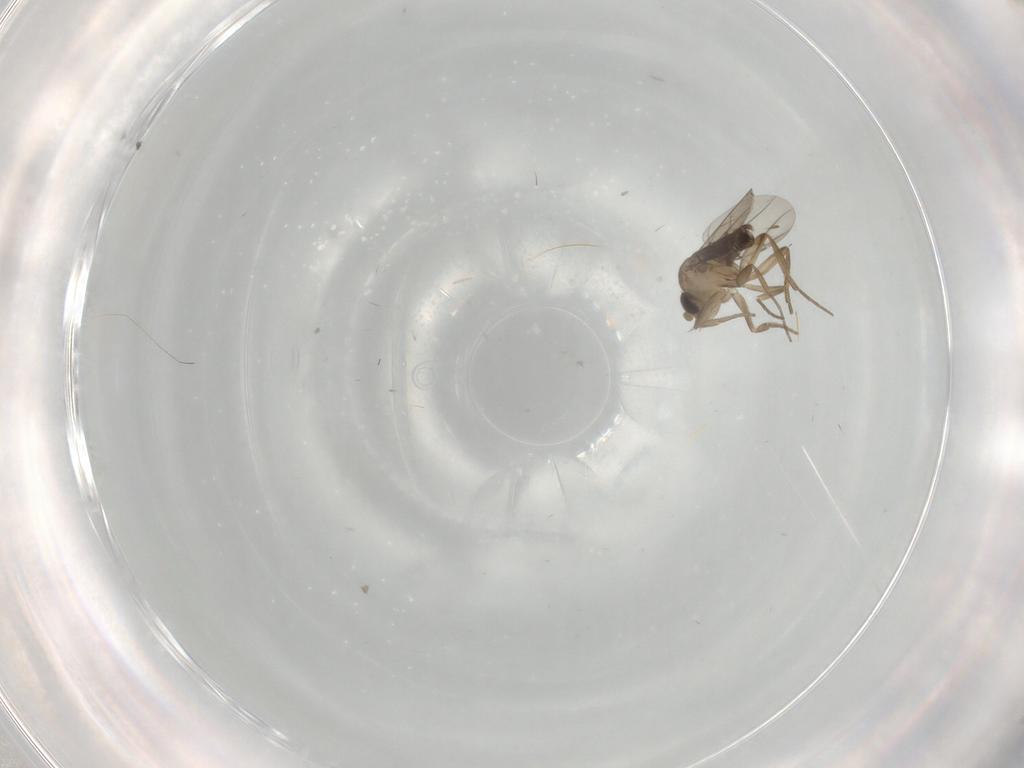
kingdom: Animalia
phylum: Arthropoda
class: Insecta
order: Diptera
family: Phoridae
